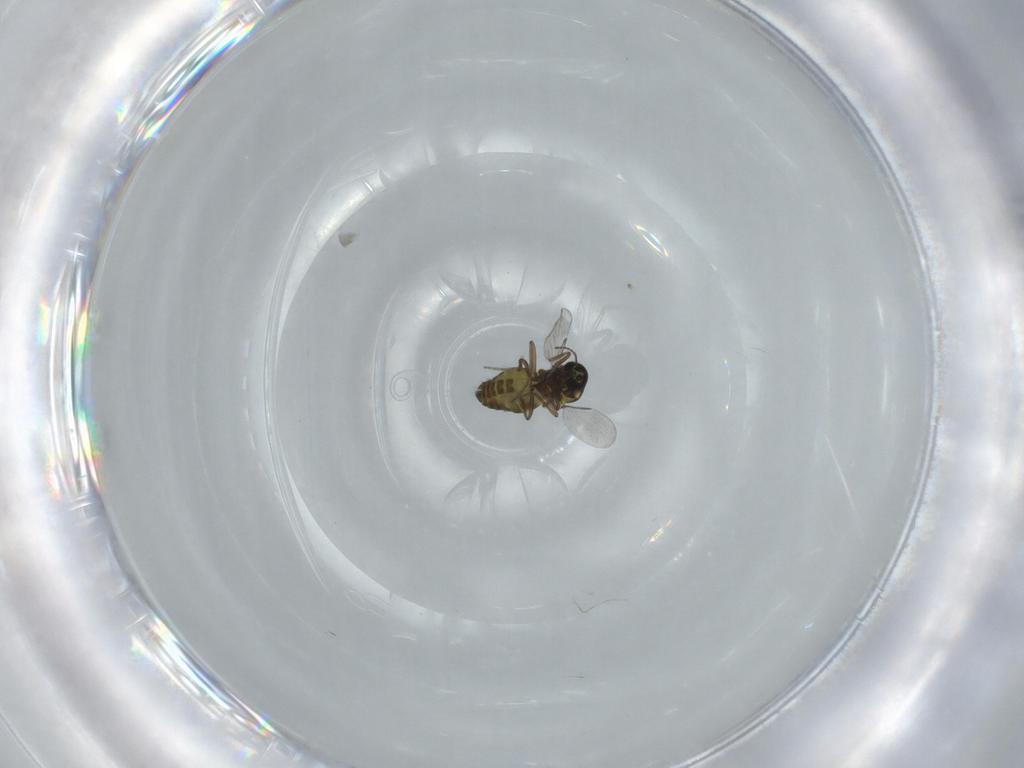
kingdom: Animalia
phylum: Arthropoda
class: Insecta
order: Diptera
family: Ceratopogonidae
